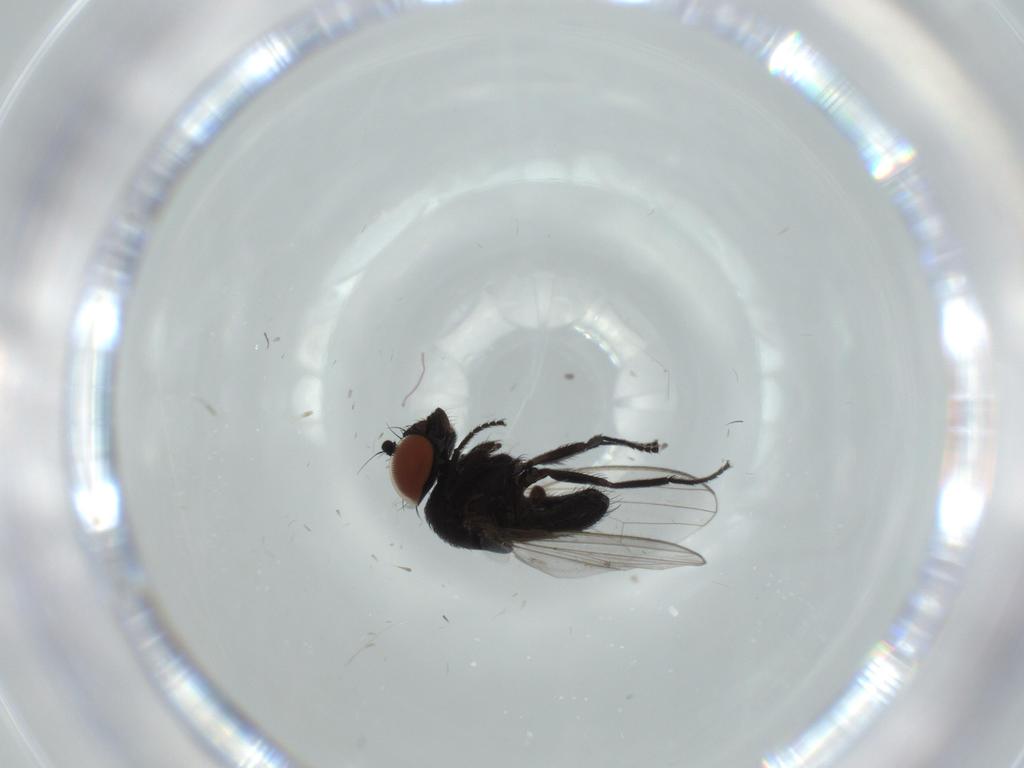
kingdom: Animalia
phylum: Arthropoda
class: Insecta
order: Diptera
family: Milichiidae
